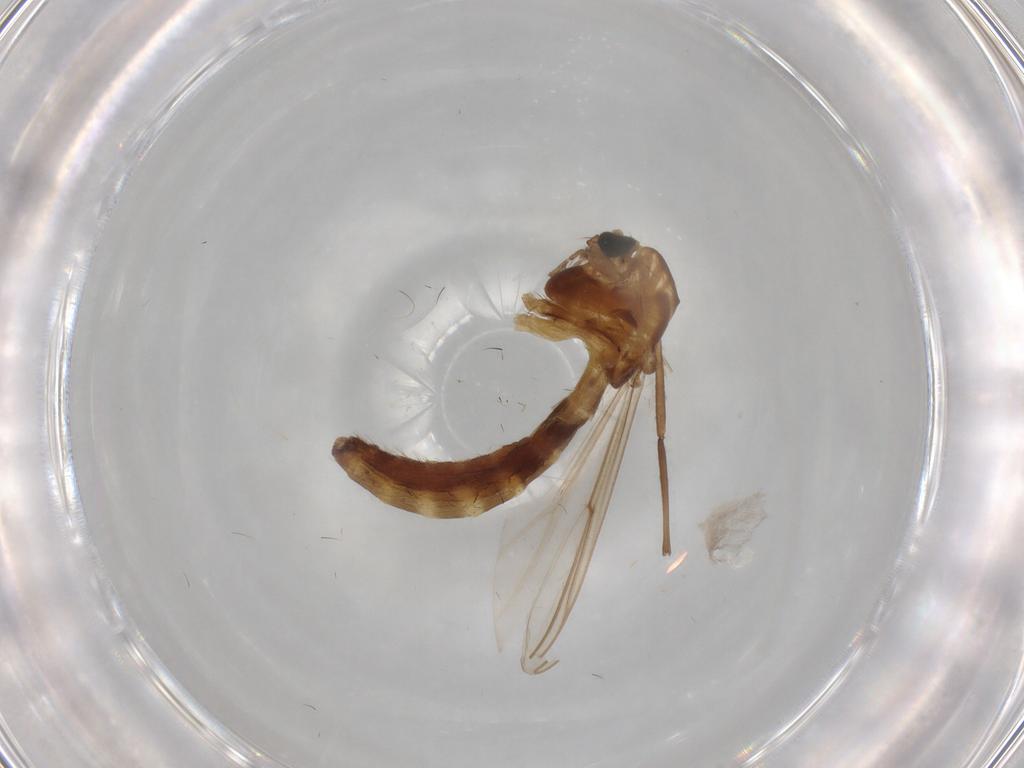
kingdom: Animalia
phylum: Arthropoda
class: Insecta
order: Diptera
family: Chironomidae
